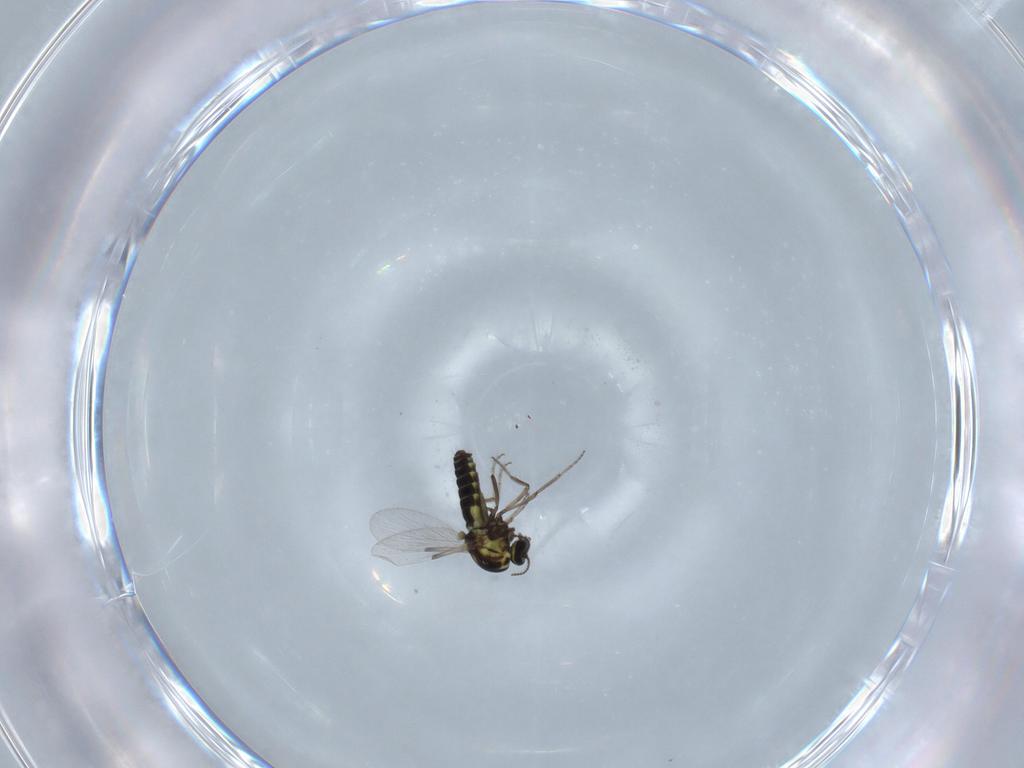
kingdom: Animalia
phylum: Arthropoda
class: Insecta
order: Diptera
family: Ceratopogonidae
